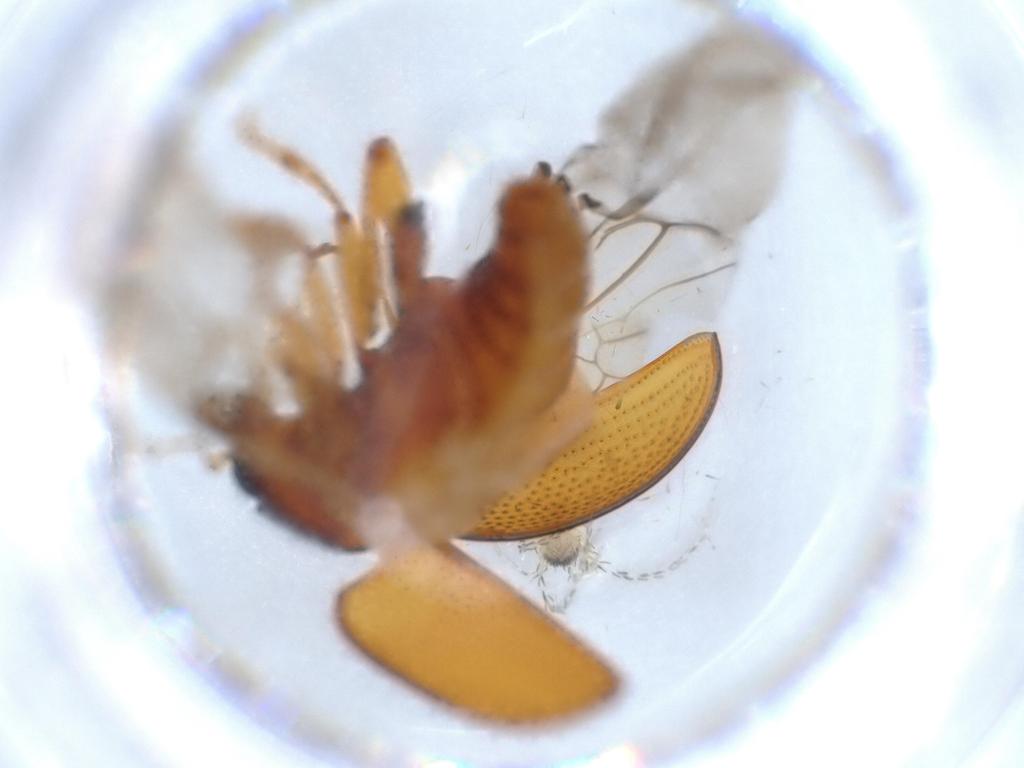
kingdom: Animalia
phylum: Arthropoda
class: Insecta
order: Coleoptera
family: Chrysomelidae
